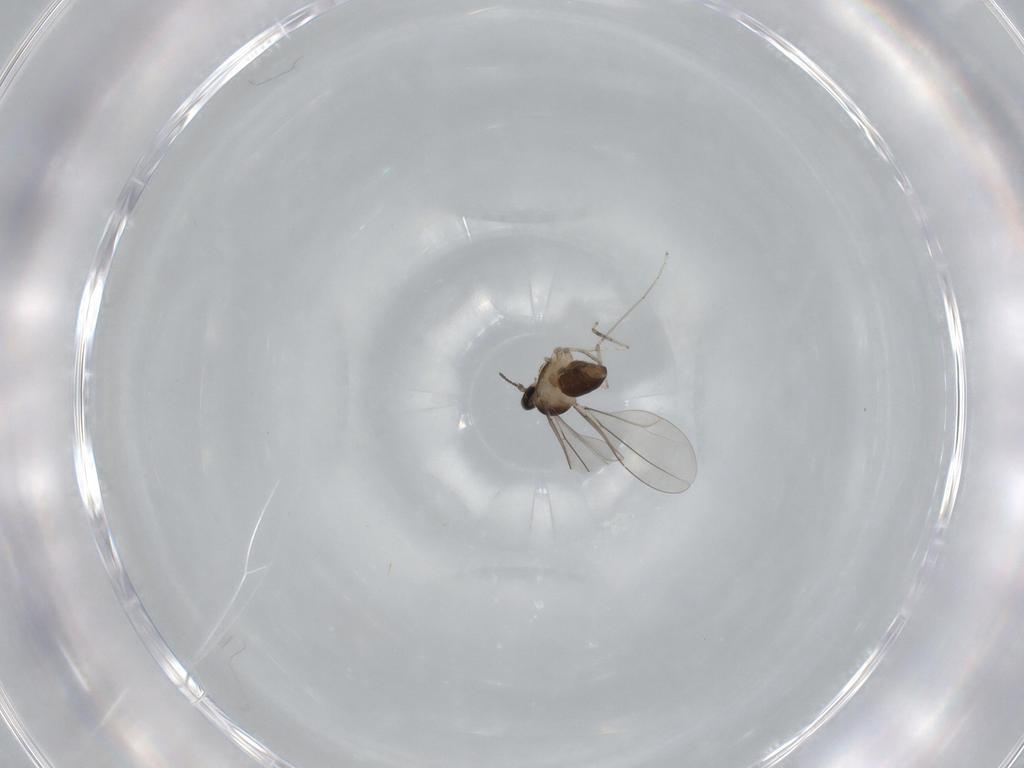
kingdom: Animalia
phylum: Arthropoda
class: Insecta
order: Diptera
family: Cecidomyiidae
